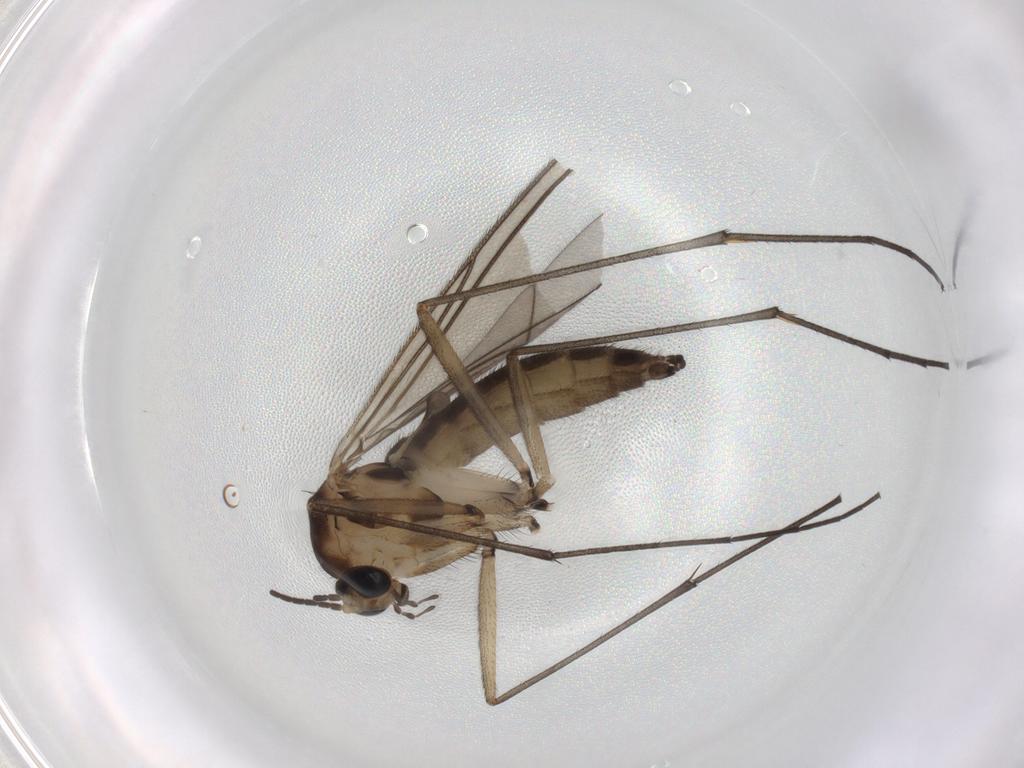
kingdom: Animalia
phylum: Arthropoda
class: Insecta
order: Diptera
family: Sciaridae
